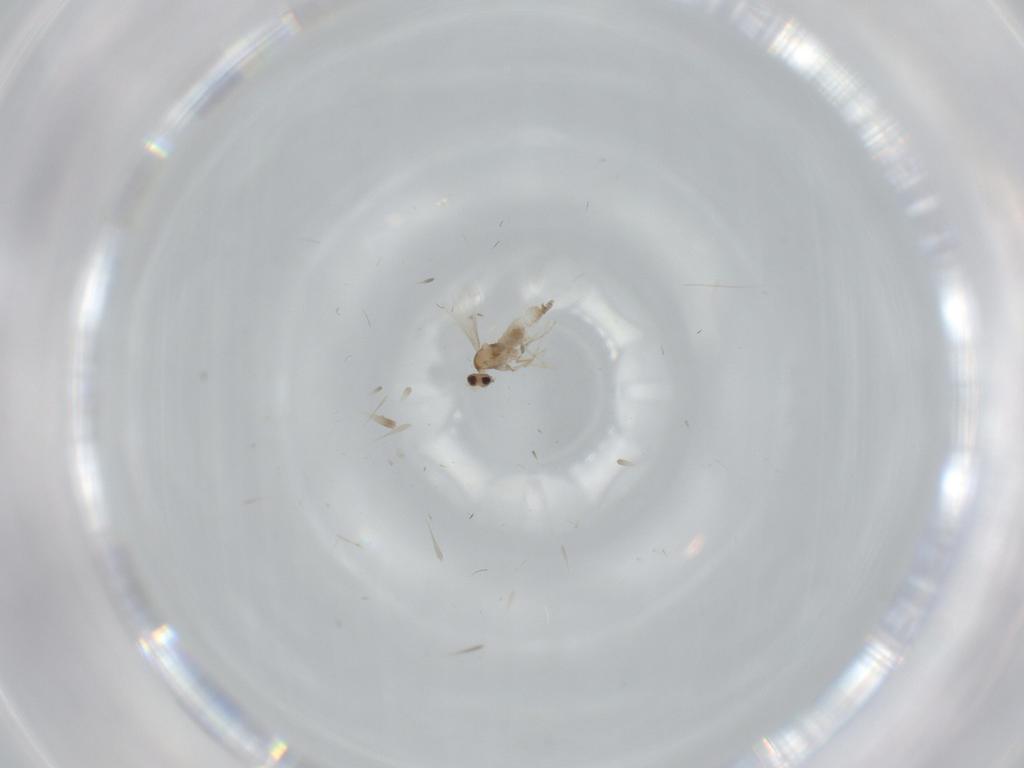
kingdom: Animalia
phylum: Arthropoda
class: Insecta
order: Diptera
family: Cecidomyiidae
